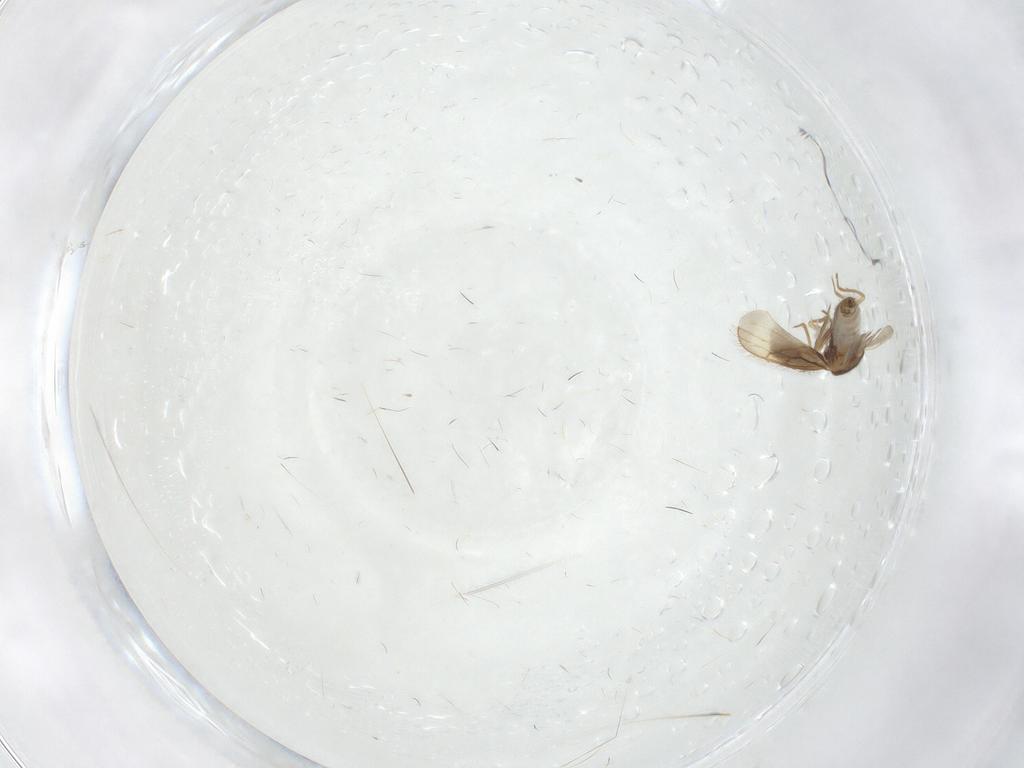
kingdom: Animalia
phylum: Arthropoda
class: Insecta
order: Hemiptera
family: Schizopteridae
